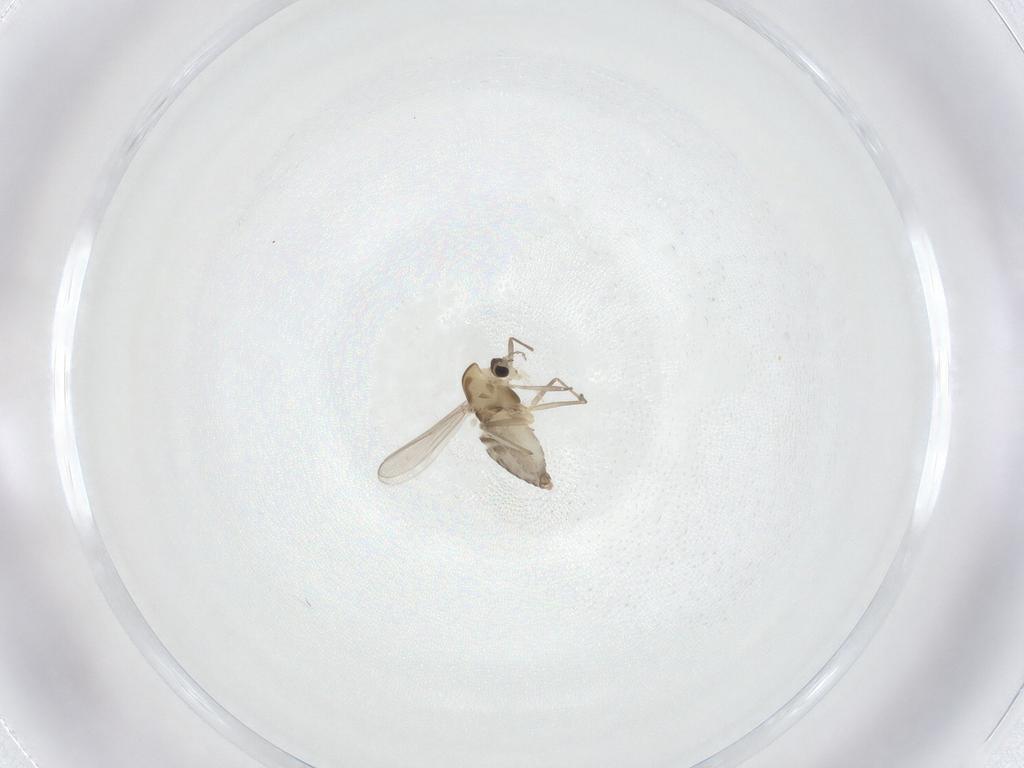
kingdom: Animalia
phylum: Arthropoda
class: Insecta
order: Diptera
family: Chironomidae
